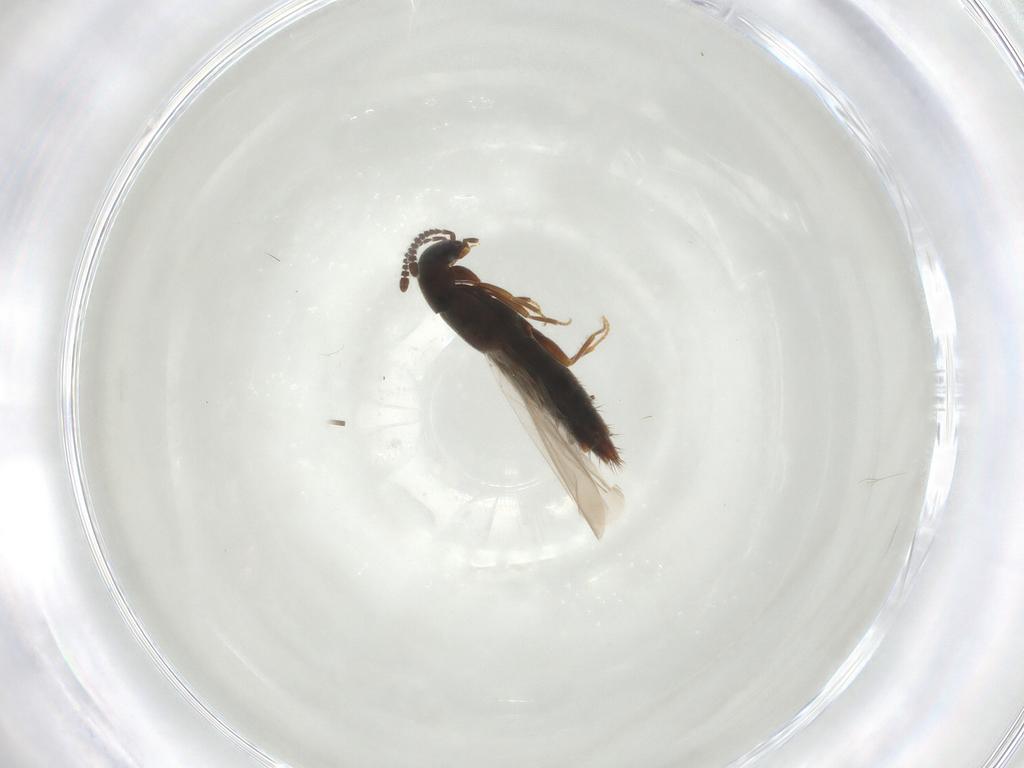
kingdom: Animalia
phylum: Arthropoda
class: Insecta
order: Coleoptera
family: Staphylinidae
